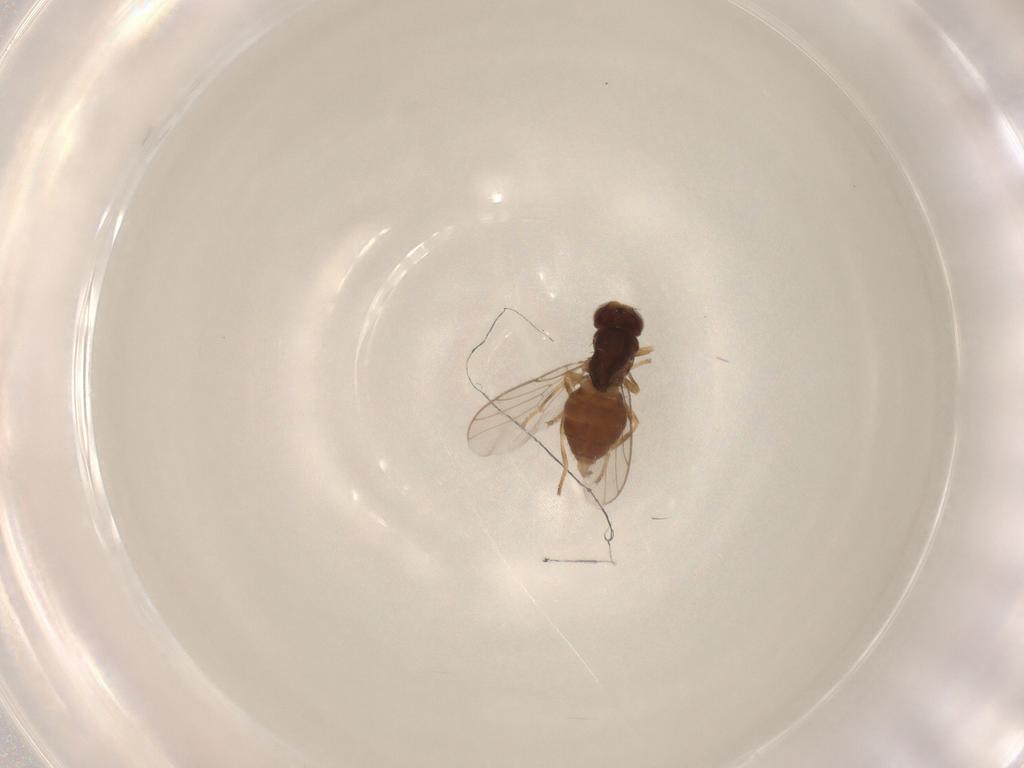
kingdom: Animalia
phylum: Arthropoda
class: Insecta
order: Diptera
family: Chloropidae
